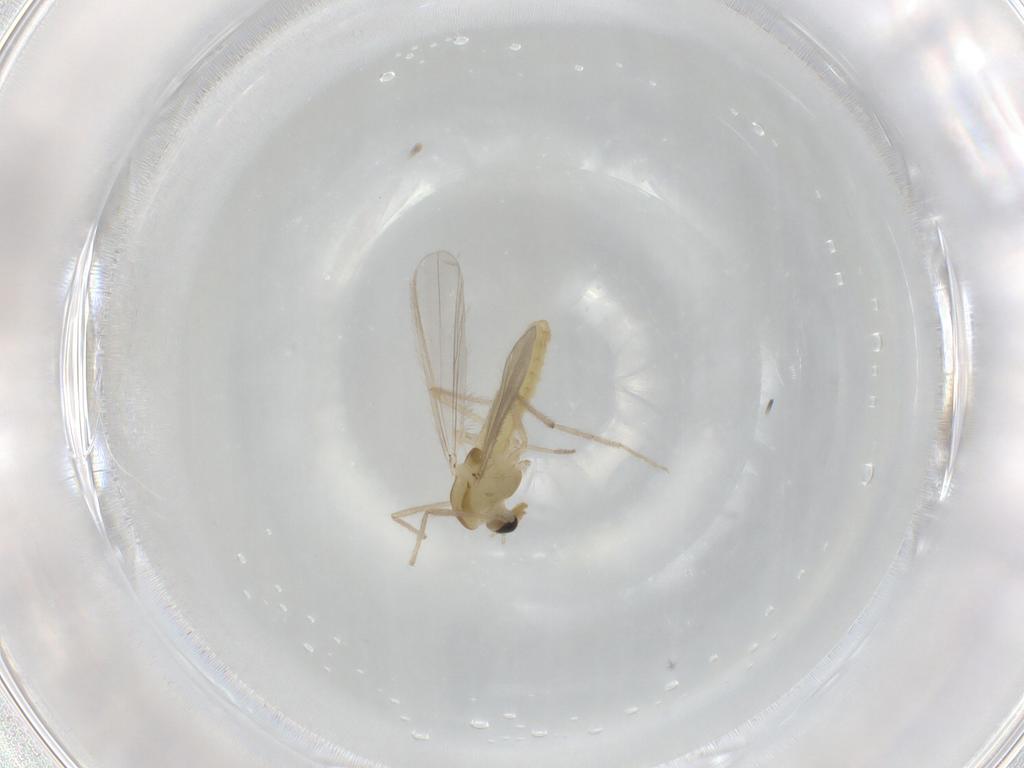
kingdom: Animalia
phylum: Arthropoda
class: Insecta
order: Diptera
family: Chironomidae
